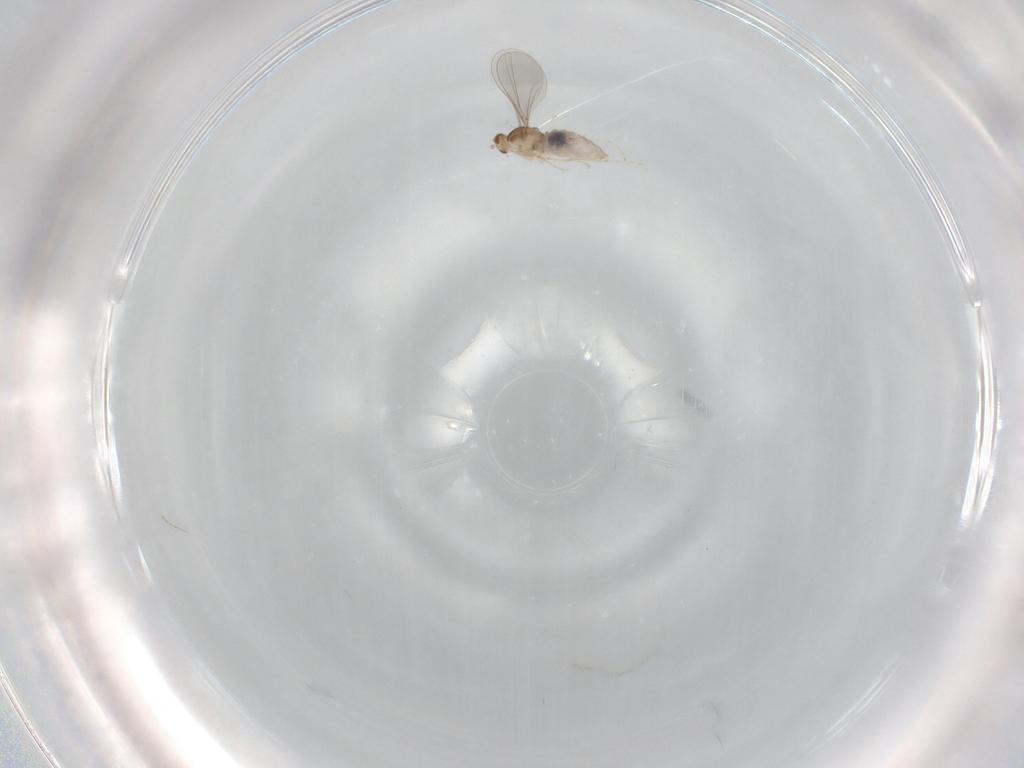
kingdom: Animalia
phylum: Arthropoda
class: Insecta
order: Diptera
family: Cecidomyiidae
